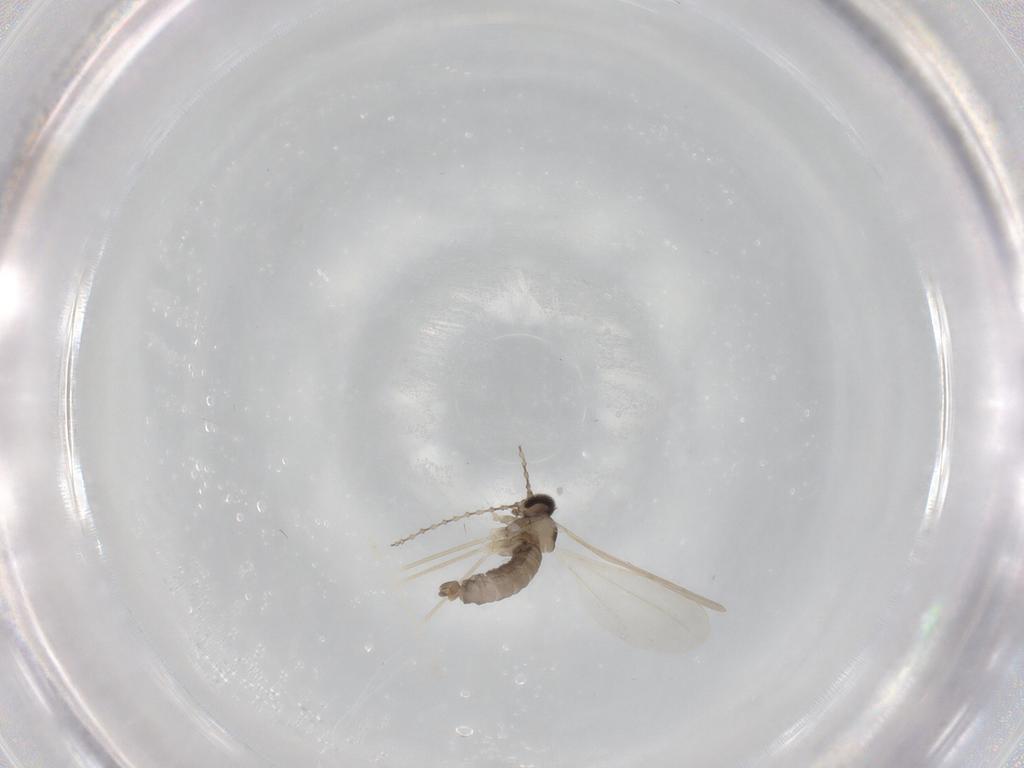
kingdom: Animalia
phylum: Arthropoda
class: Insecta
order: Diptera
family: Cecidomyiidae
